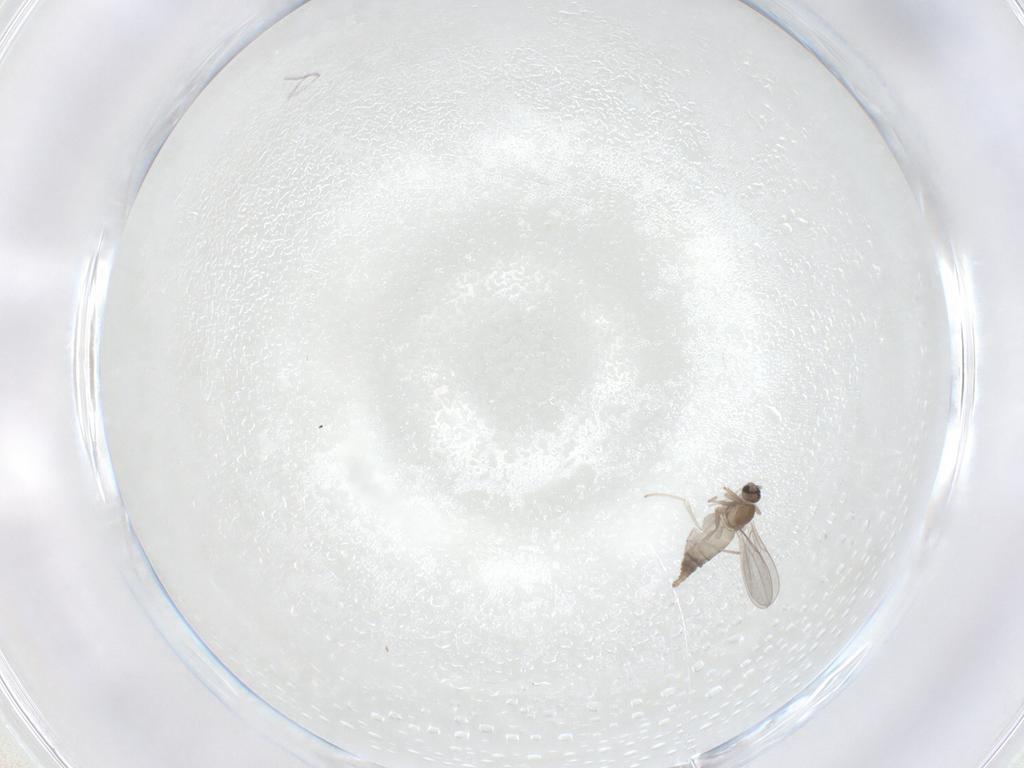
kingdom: Animalia
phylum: Arthropoda
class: Insecta
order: Diptera
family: Cecidomyiidae
